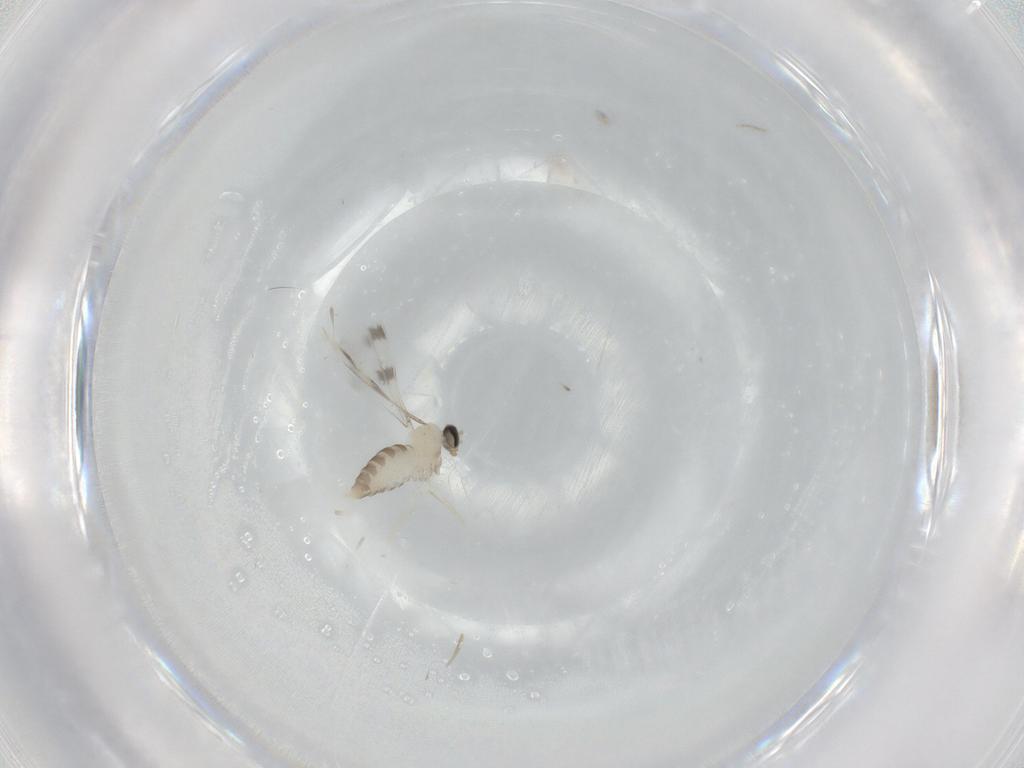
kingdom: Animalia
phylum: Arthropoda
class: Insecta
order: Diptera
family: Cecidomyiidae
